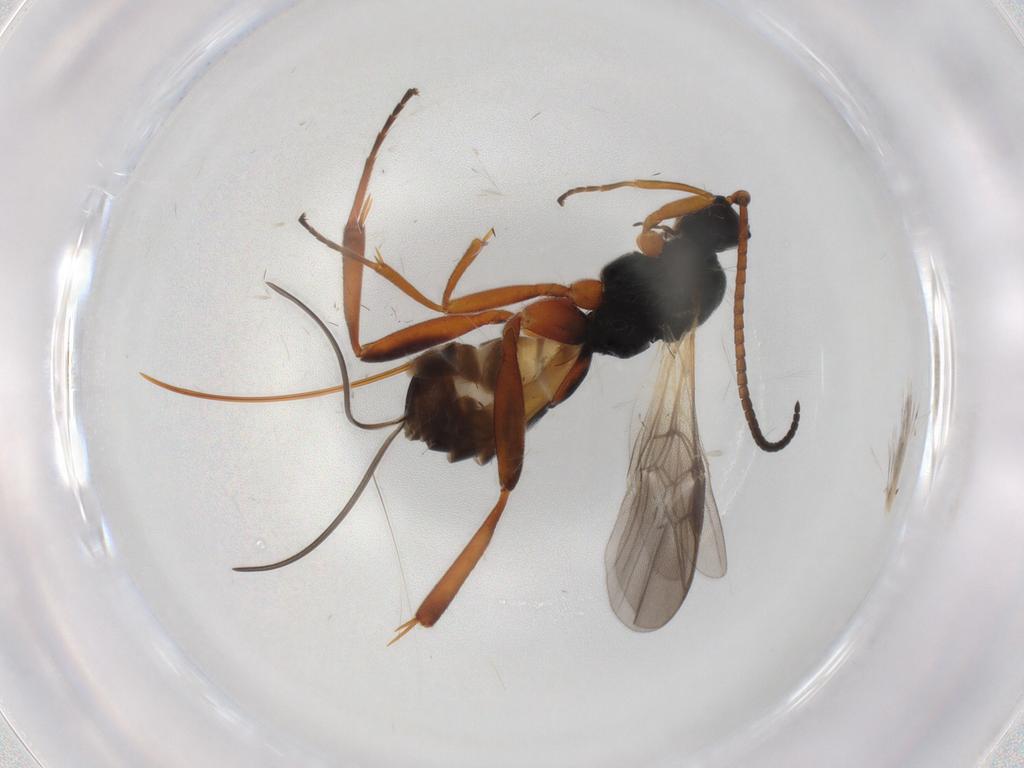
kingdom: Animalia
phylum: Arthropoda
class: Insecta
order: Hymenoptera
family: Braconidae
